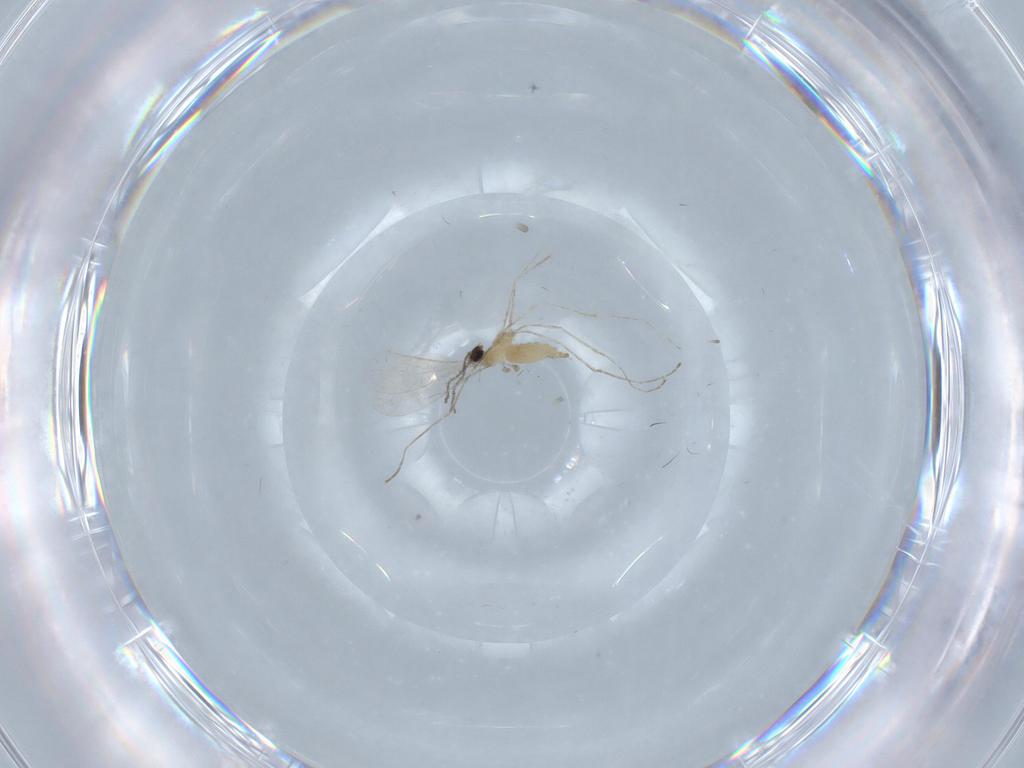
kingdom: Animalia
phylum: Arthropoda
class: Insecta
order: Diptera
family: Cecidomyiidae
